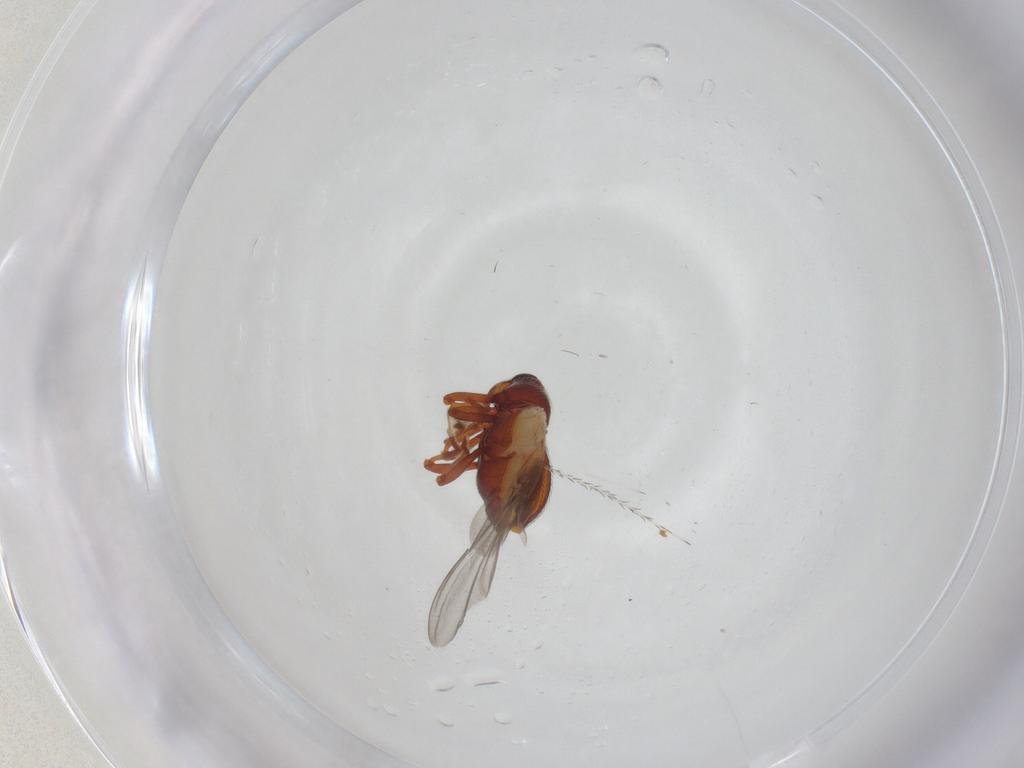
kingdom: Animalia
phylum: Arthropoda
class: Insecta
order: Coleoptera
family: Curculionidae
